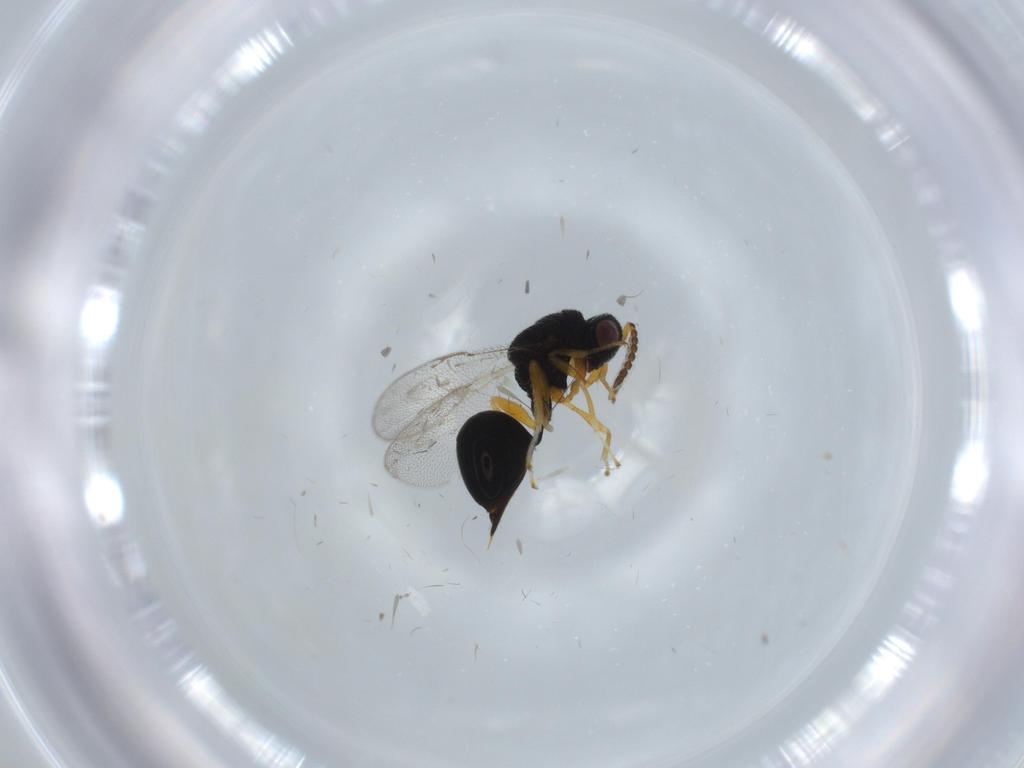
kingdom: Animalia
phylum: Arthropoda
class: Insecta
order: Hymenoptera
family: Eurytomidae
